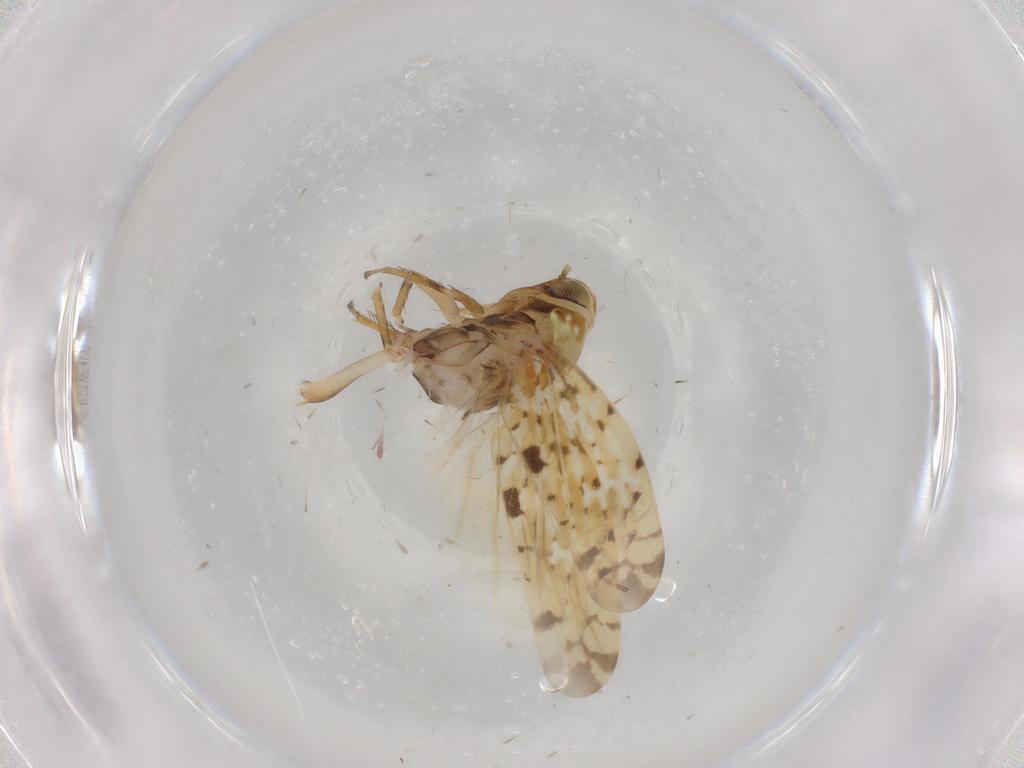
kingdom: Animalia
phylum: Arthropoda
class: Insecta
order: Hemiptera
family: Cicadellidae
